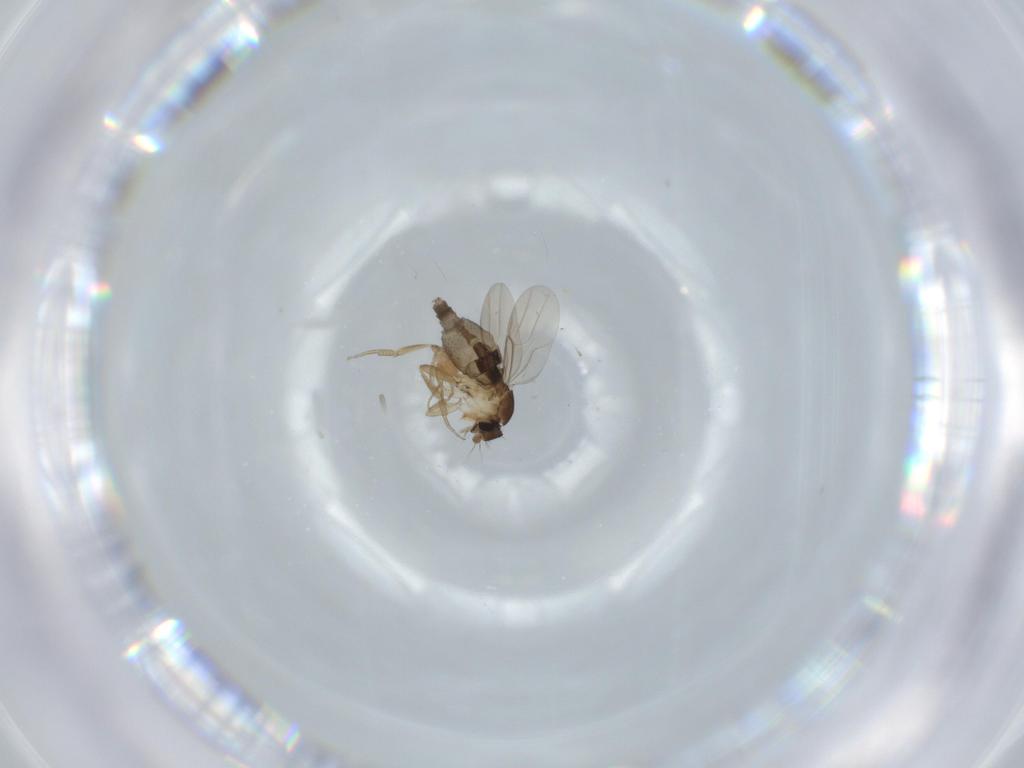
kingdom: Animalia
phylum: Arthropoda
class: Insecta
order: Diptera
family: Phoridae
